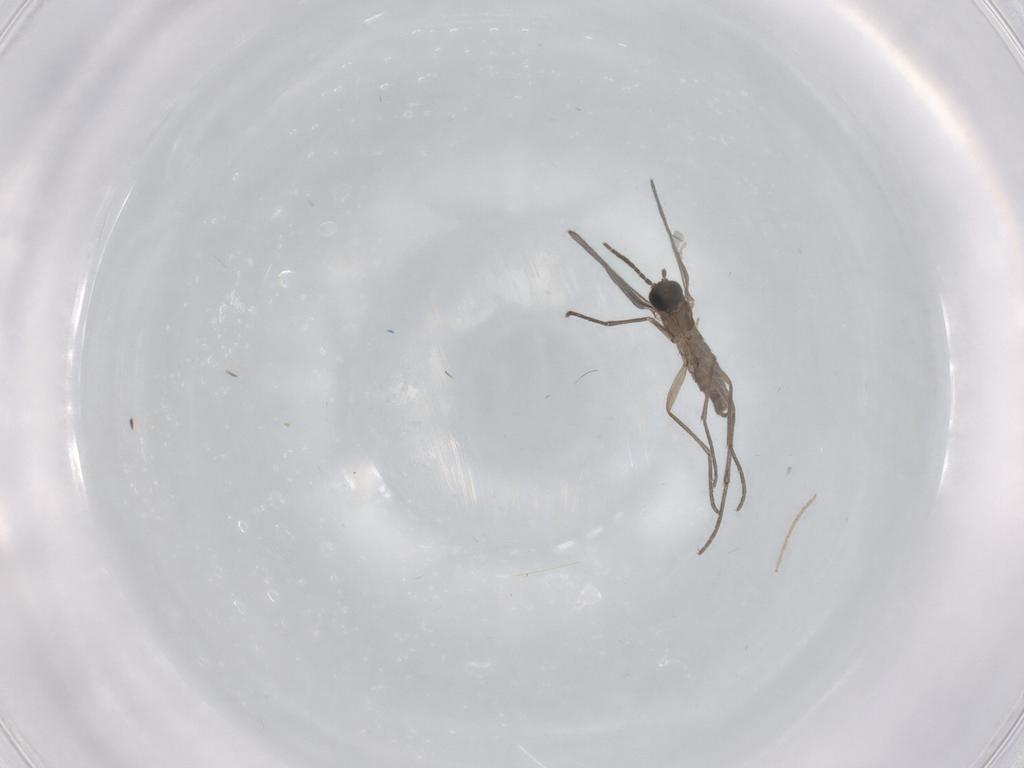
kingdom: Animalia
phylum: Arthropoda
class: Insecta
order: Diptera
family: Sciaridae
